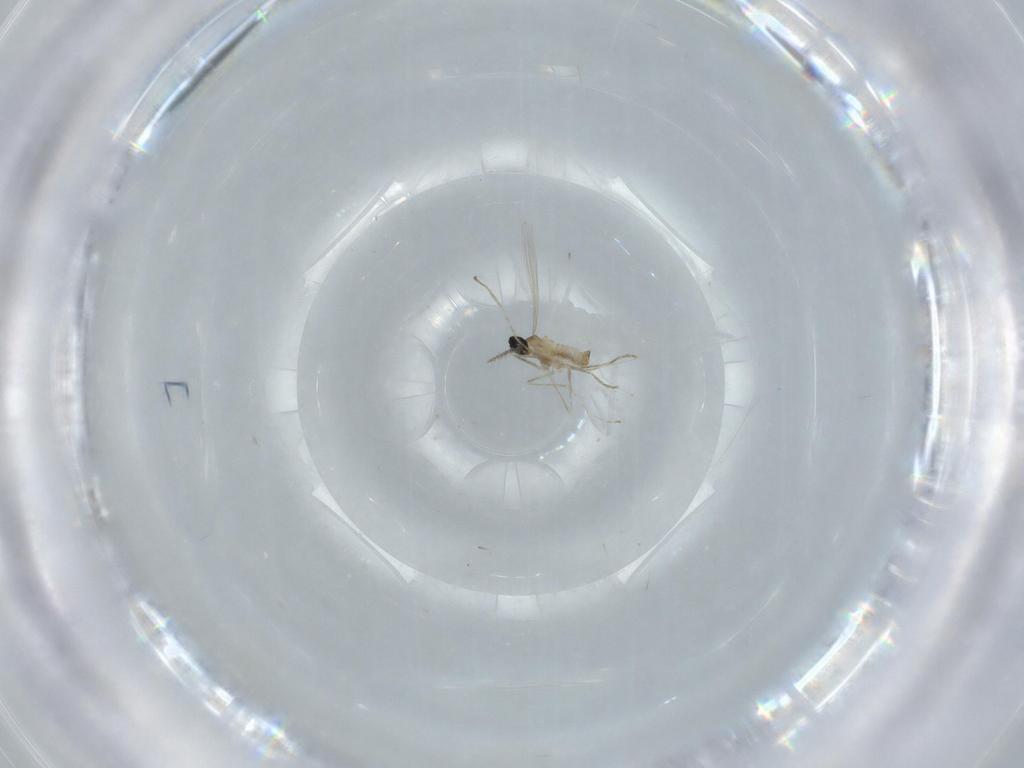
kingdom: Animalia
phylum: Arthropoda
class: Insecta
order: Diptera
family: Cecidomyiidae
